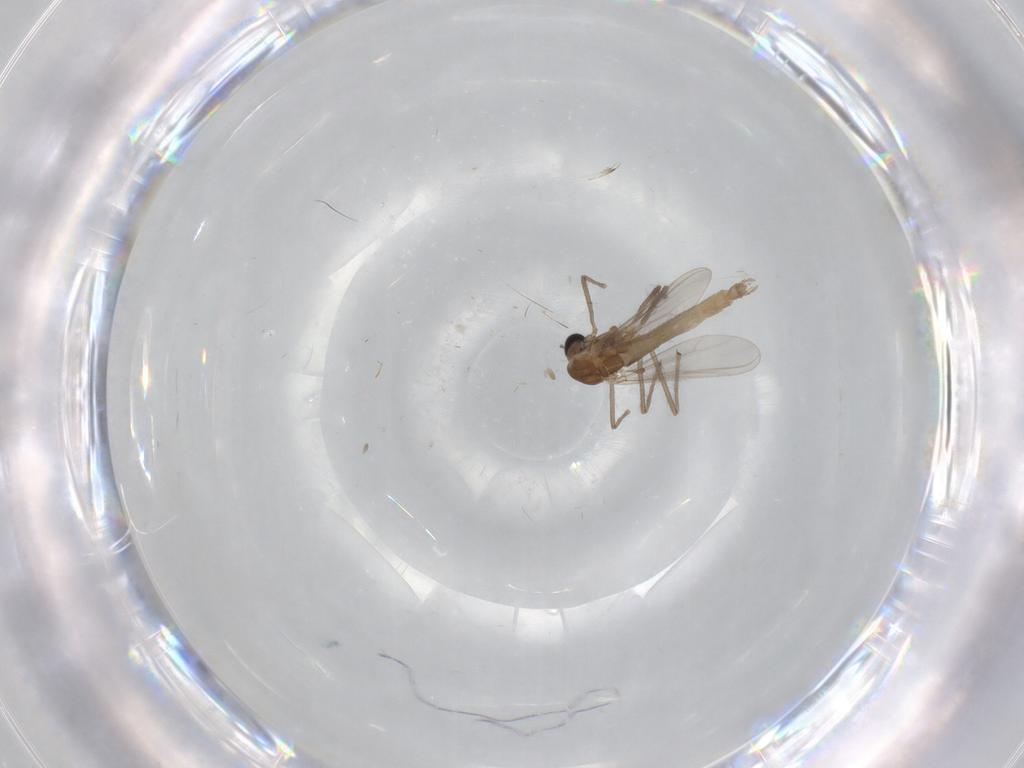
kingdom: Animalia
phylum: Arthropoda
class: Insecta
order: Diptera
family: Chironomidae
